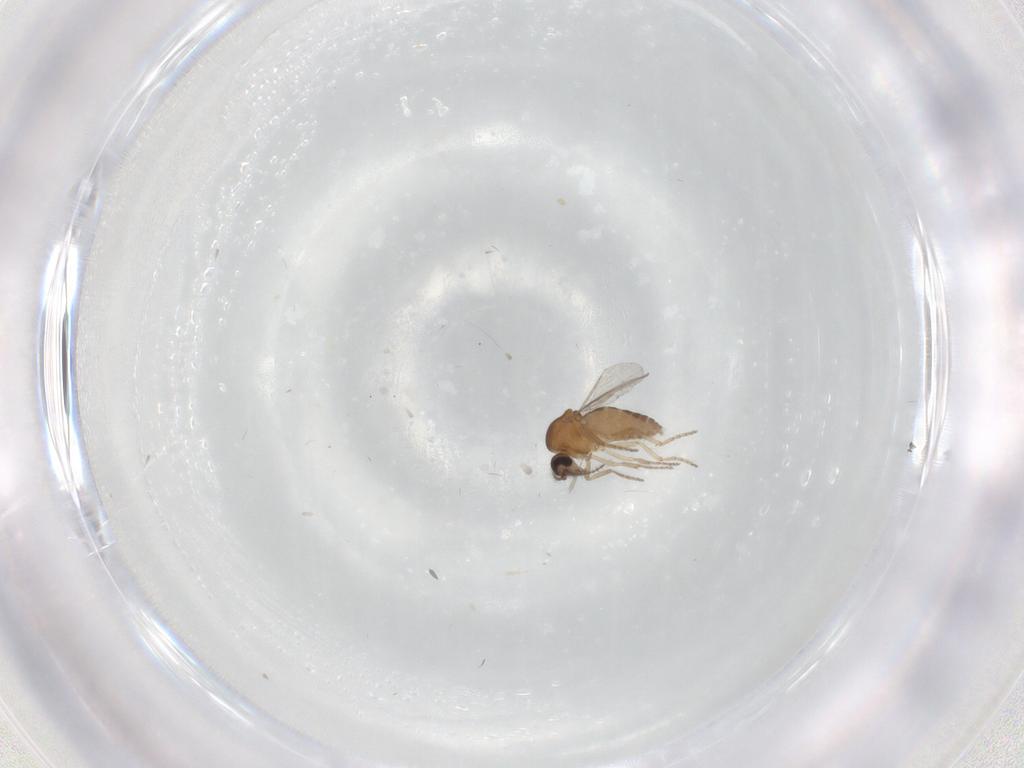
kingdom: Animalia
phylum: Arthropoda
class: Insecta
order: Diptera
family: Ceratopogonidae
